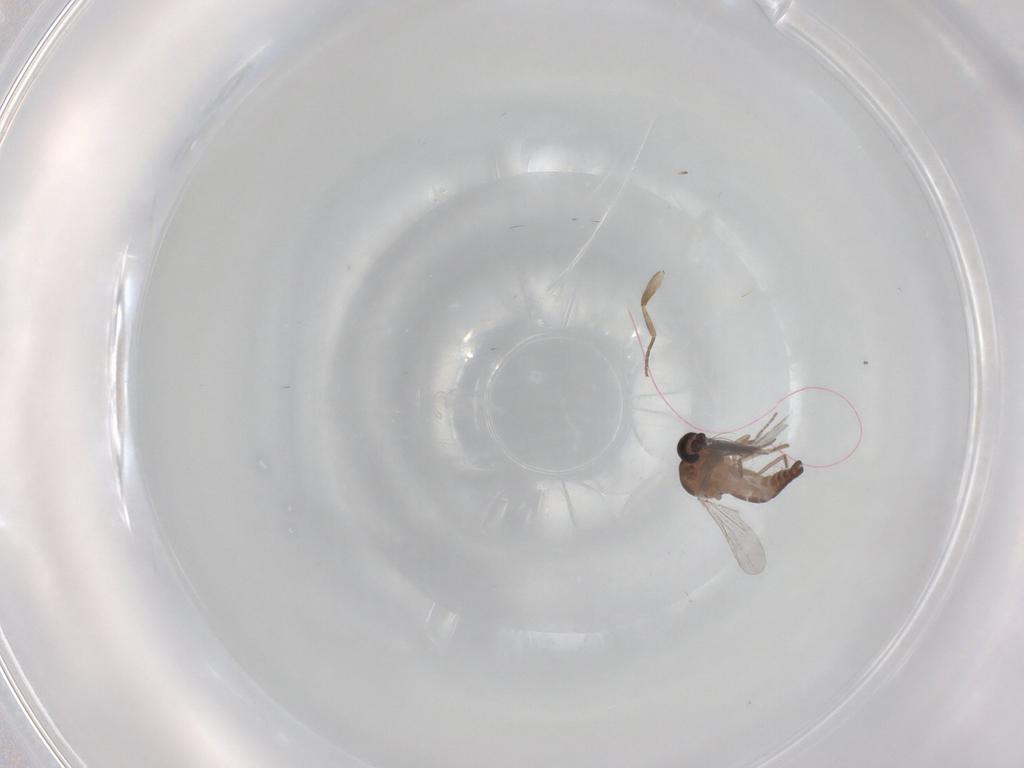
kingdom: Animalia
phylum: Arthropoda
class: Insecta
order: Diptera
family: Ceratopogonidae
